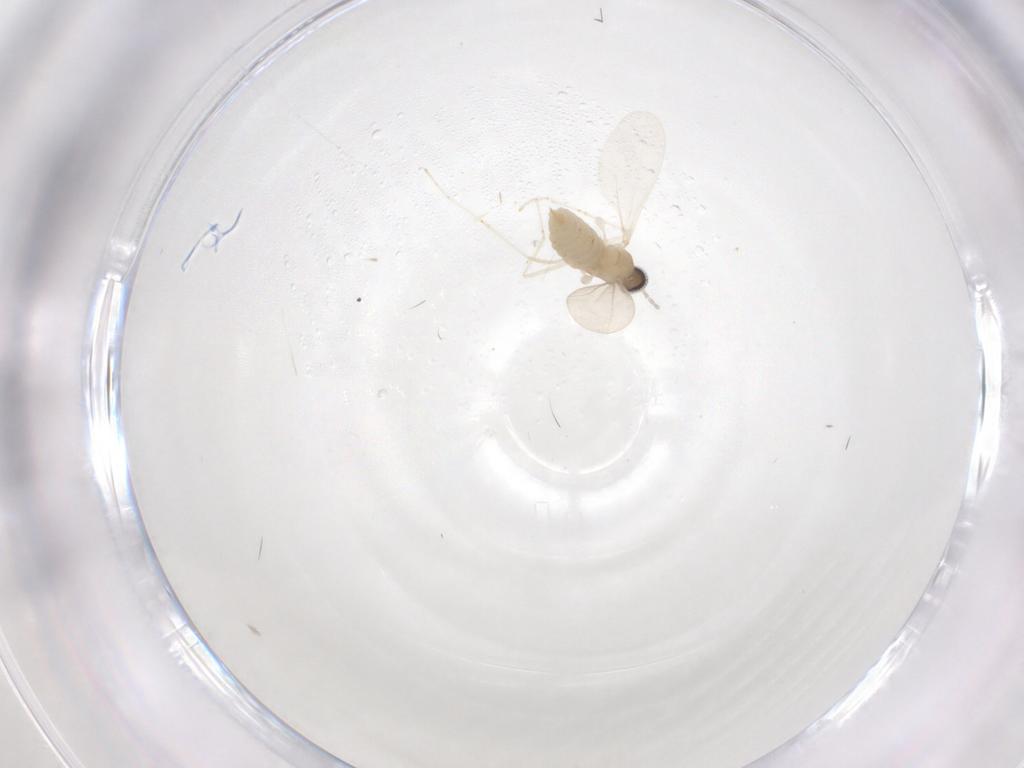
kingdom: Animalia
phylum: Arthropoda
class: Insecta
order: Diptera
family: Cecidomyiidae
